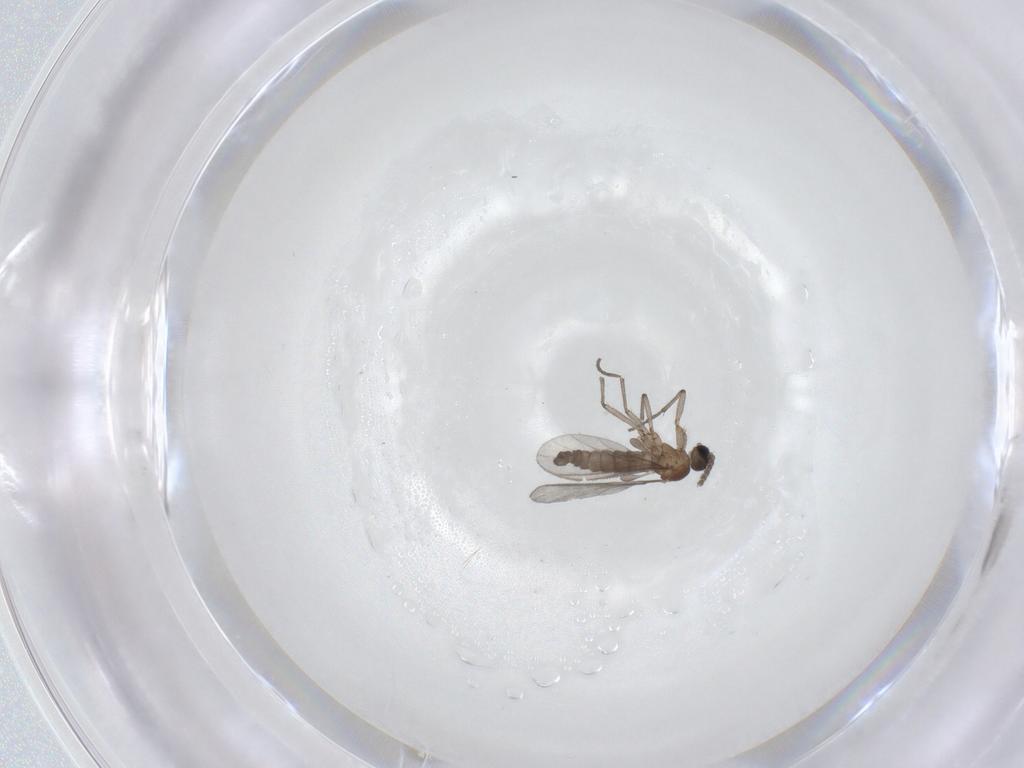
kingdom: Animalia
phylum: Arthropoda
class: Insecta
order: Diptera
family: Sciaridae
